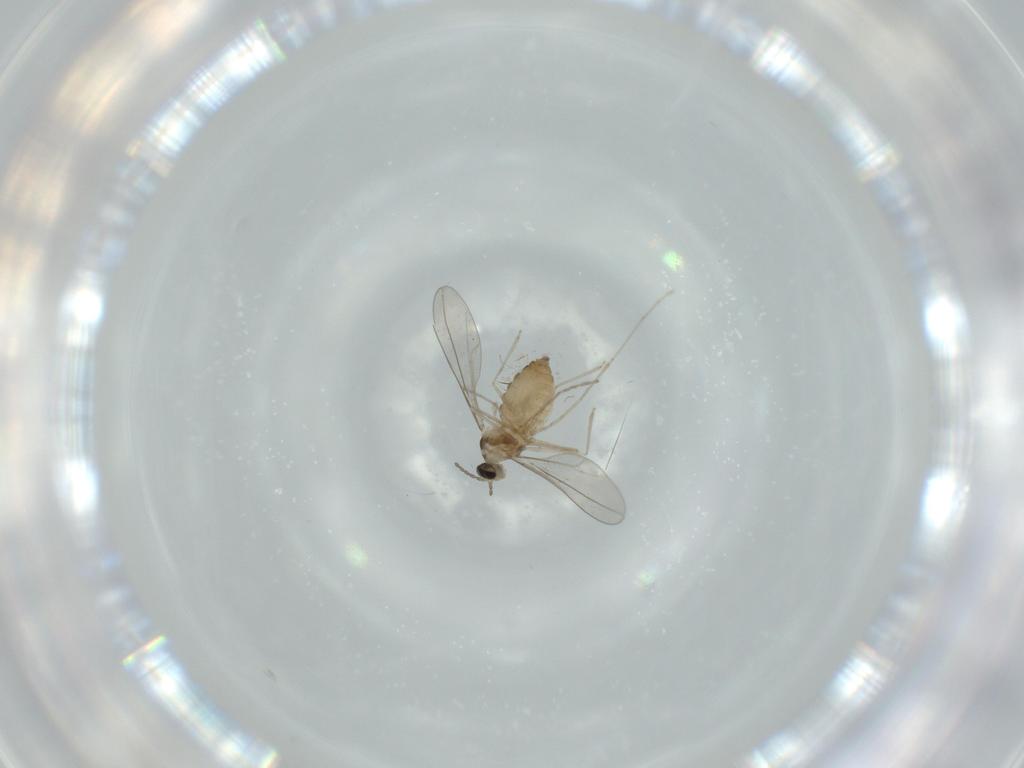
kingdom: Animalia
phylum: Arthropoda
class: Insecta
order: Diptera
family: Cecidomyiidae
